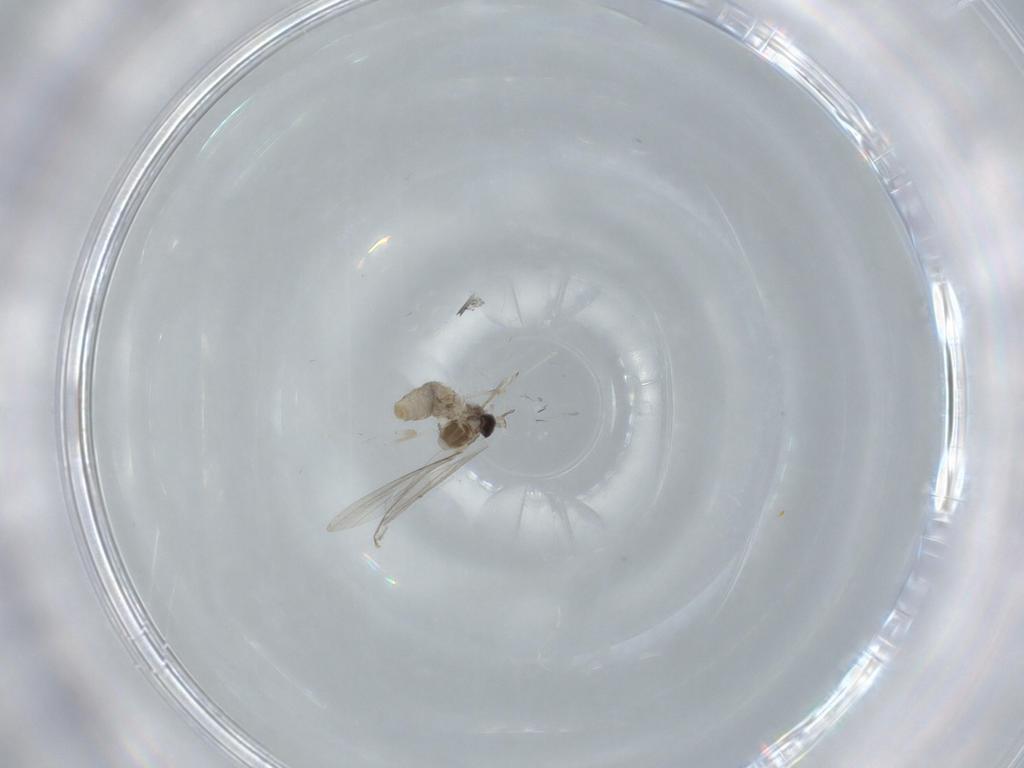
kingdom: Animalia
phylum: Arthropoda
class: Insecta
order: Diptera
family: Cecidomyiidae
